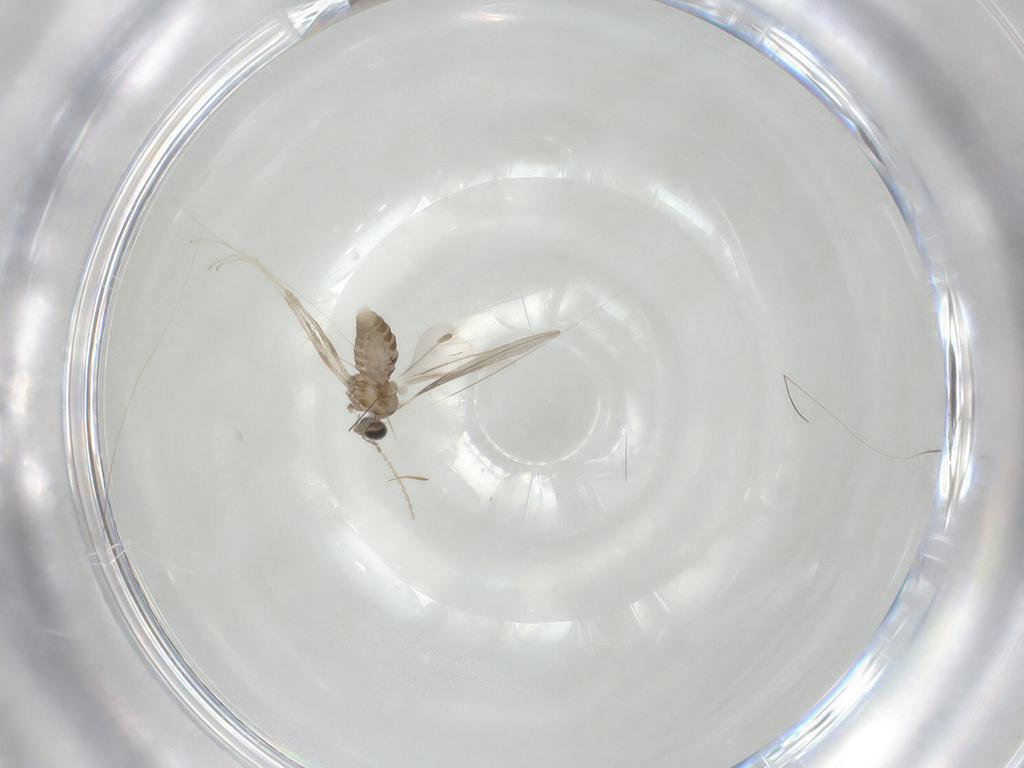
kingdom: Animalia
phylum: Arthropoda
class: Insecta
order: Diptera
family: Cecidomyiidae
